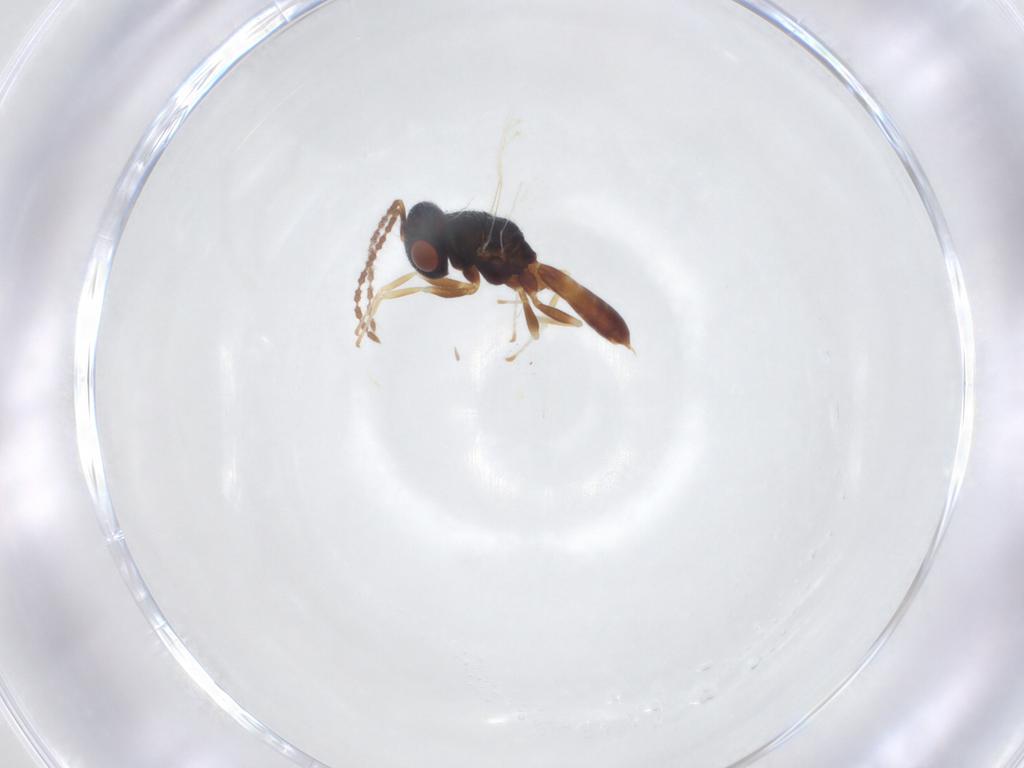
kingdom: Animalia
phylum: Arthropoda
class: Insecta
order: Hymenoptera
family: Pteromalidae
